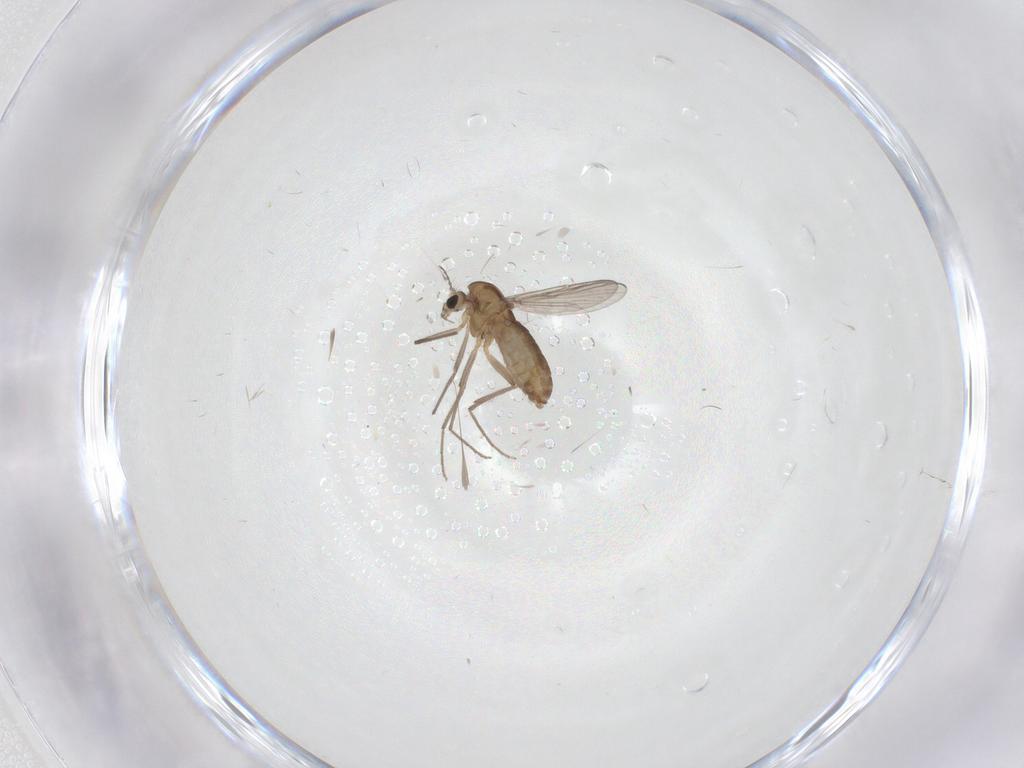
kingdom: Animalia
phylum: Arthropoda
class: Insecta
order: Diptera
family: Chironomidae
